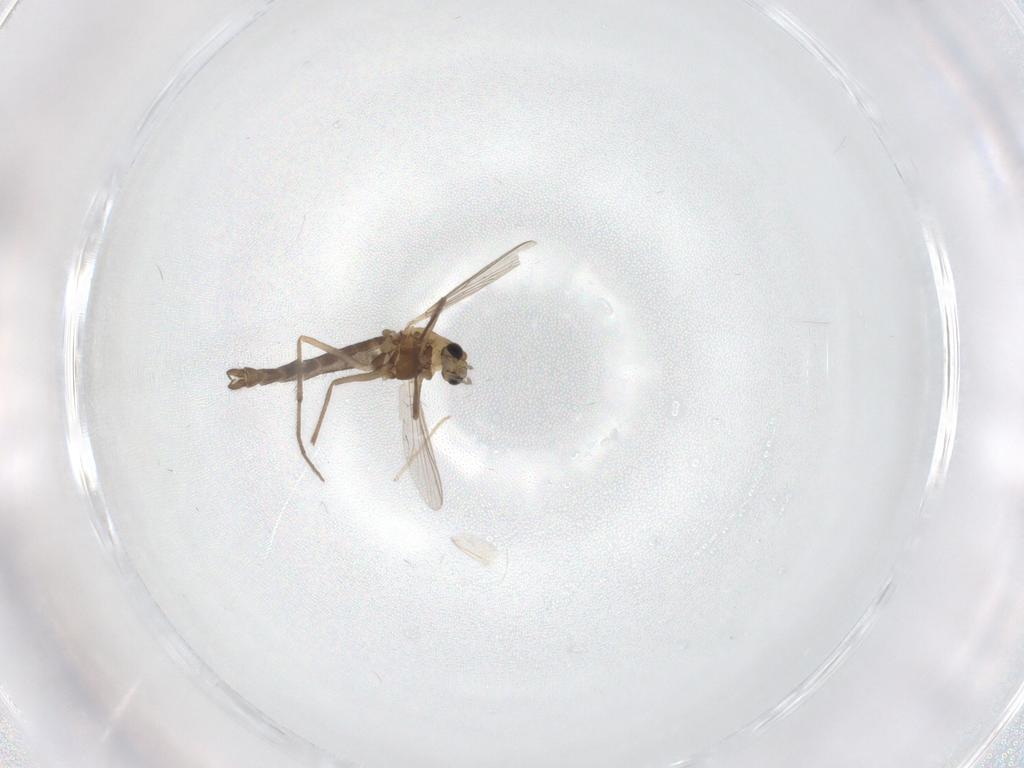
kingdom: Animalia
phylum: Arthropoda
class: Insecta
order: Diptera
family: Chironomidae
